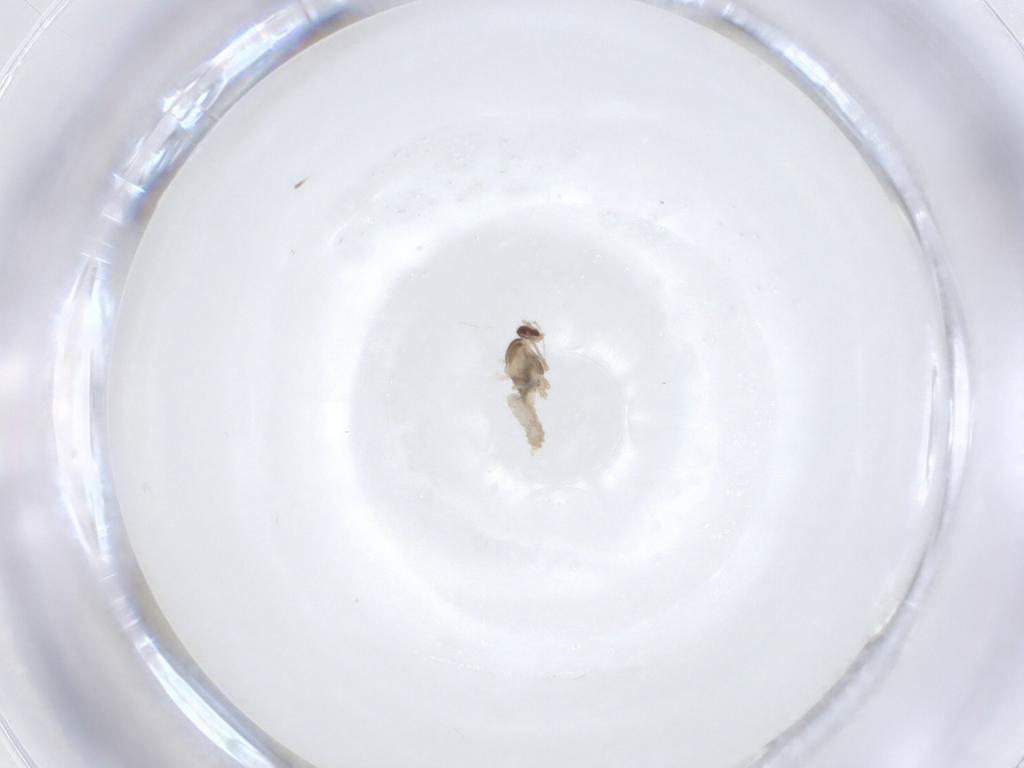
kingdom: Animalia
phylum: Arthropoda
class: Insecta
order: Diptera
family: Cecidomyiidae
